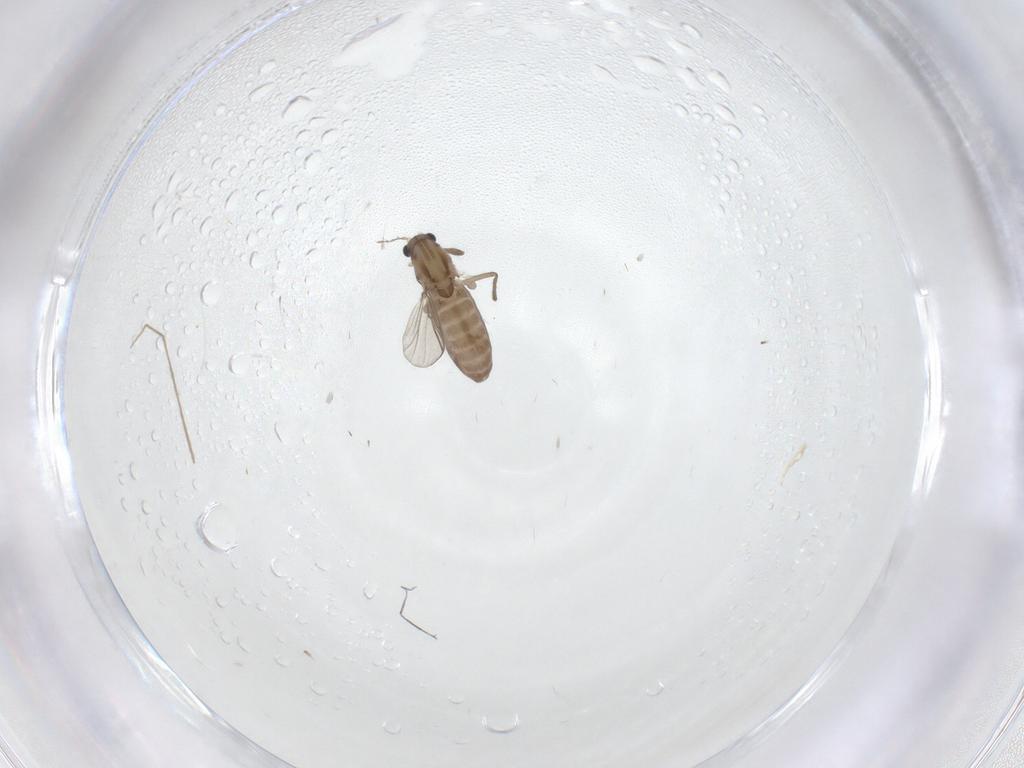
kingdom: Animalia
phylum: Arthropoda
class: Insecta
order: Diptera
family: Chironomidae
